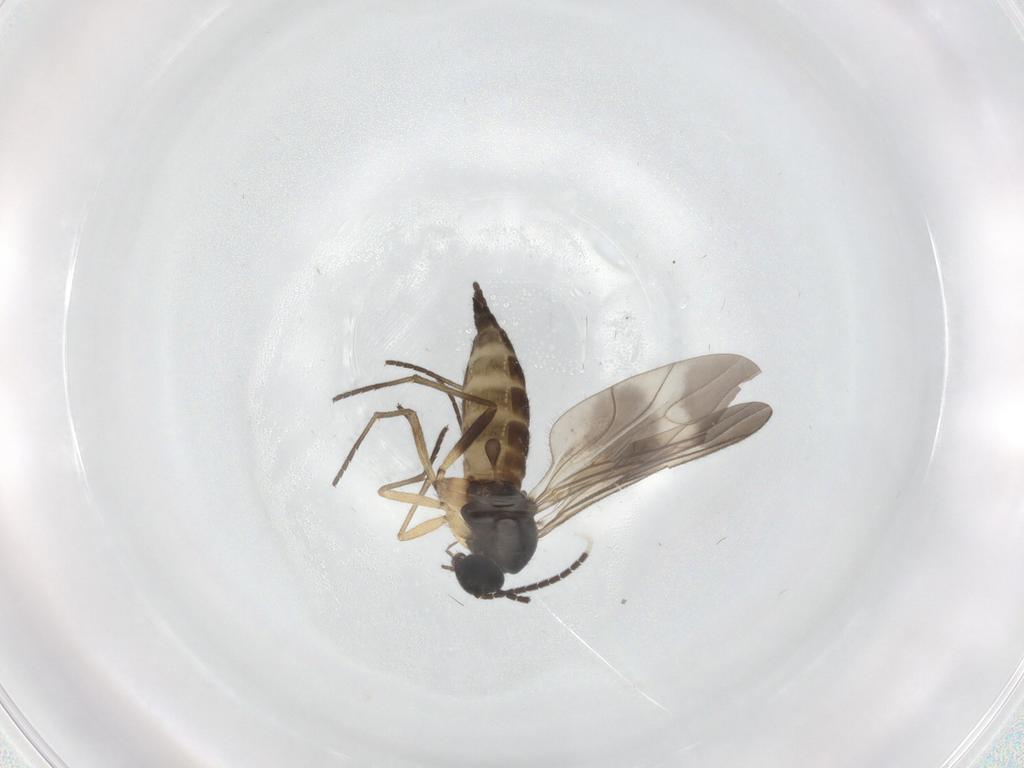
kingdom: Animalia
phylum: Arthropoda
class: Insecta
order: Diptera
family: Sciaridae
